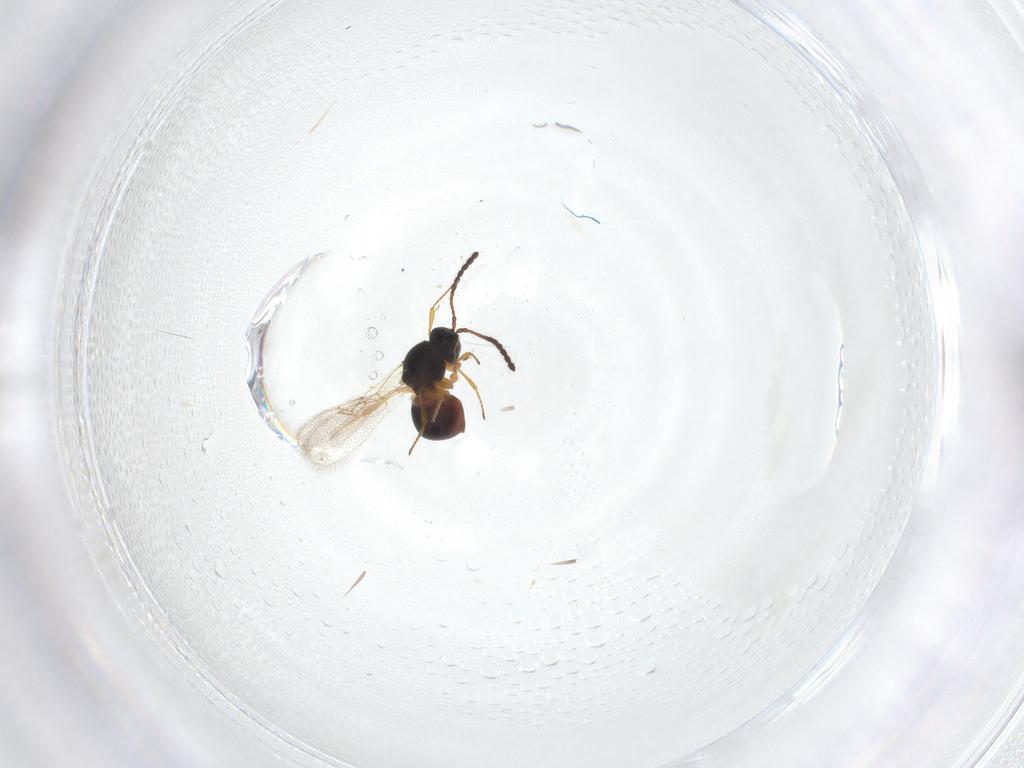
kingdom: Animalia
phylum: Arthropoda
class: Insecta
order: Hymenoptera
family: Figitidae
